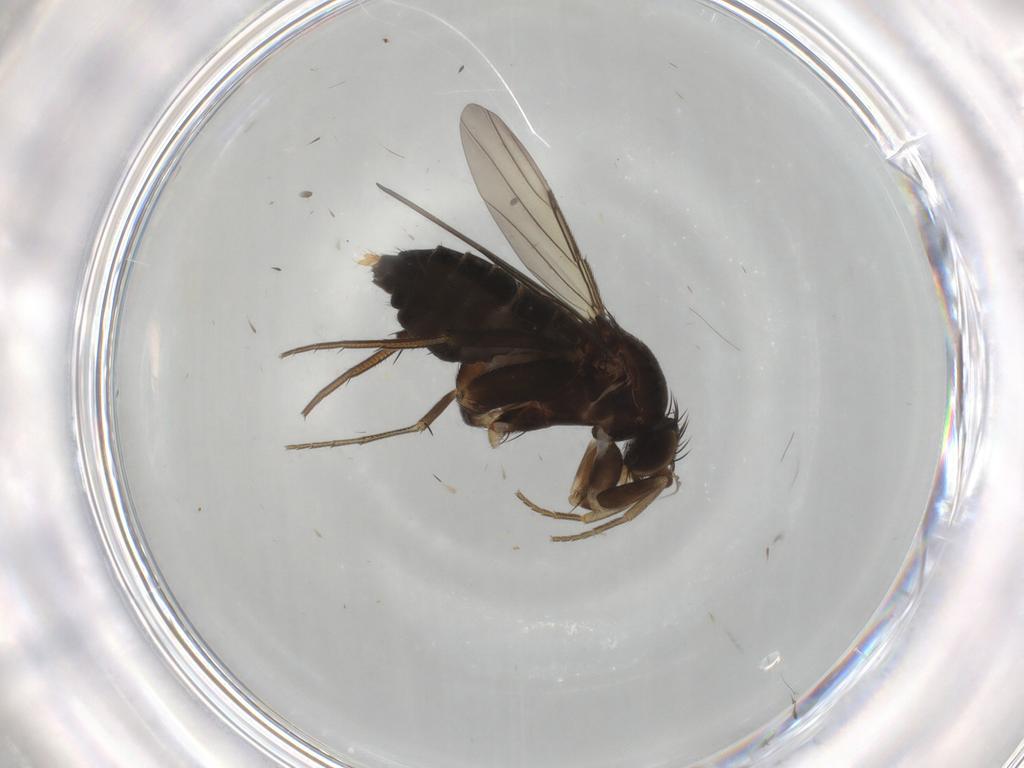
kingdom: Animalia
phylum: Arthropoda
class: Insecta
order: Diptera
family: Phoridae
